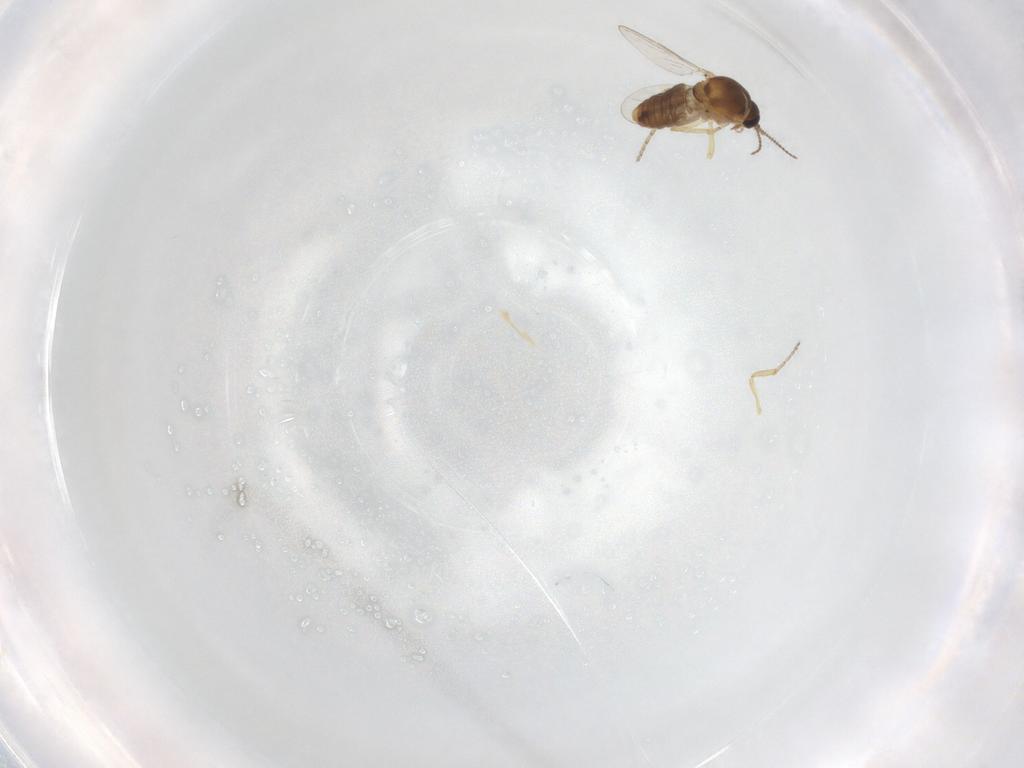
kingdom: Animalia
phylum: Arthropoda
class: Insecta
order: Diptera
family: Ceratopogonidae
